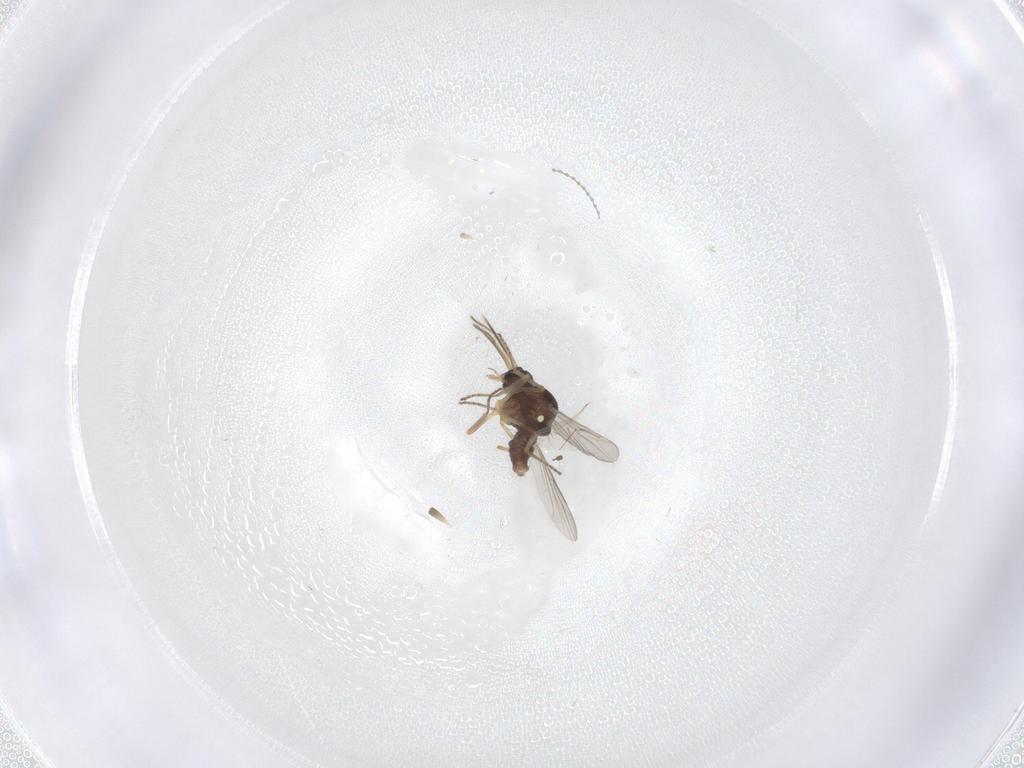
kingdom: Animalia
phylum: Arthropoda
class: Insecta
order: Diptera
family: Ceratopogonidae
